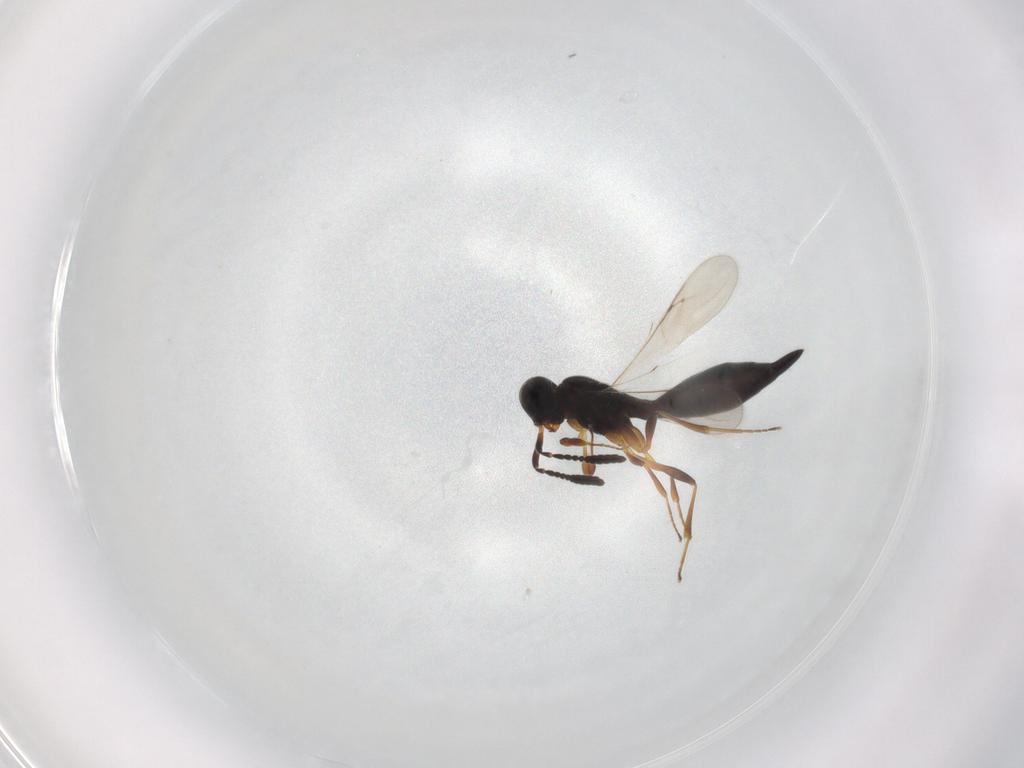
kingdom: Animalia
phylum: Arthropoda
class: Insecta
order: Hymenoptera
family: Scelionidae
